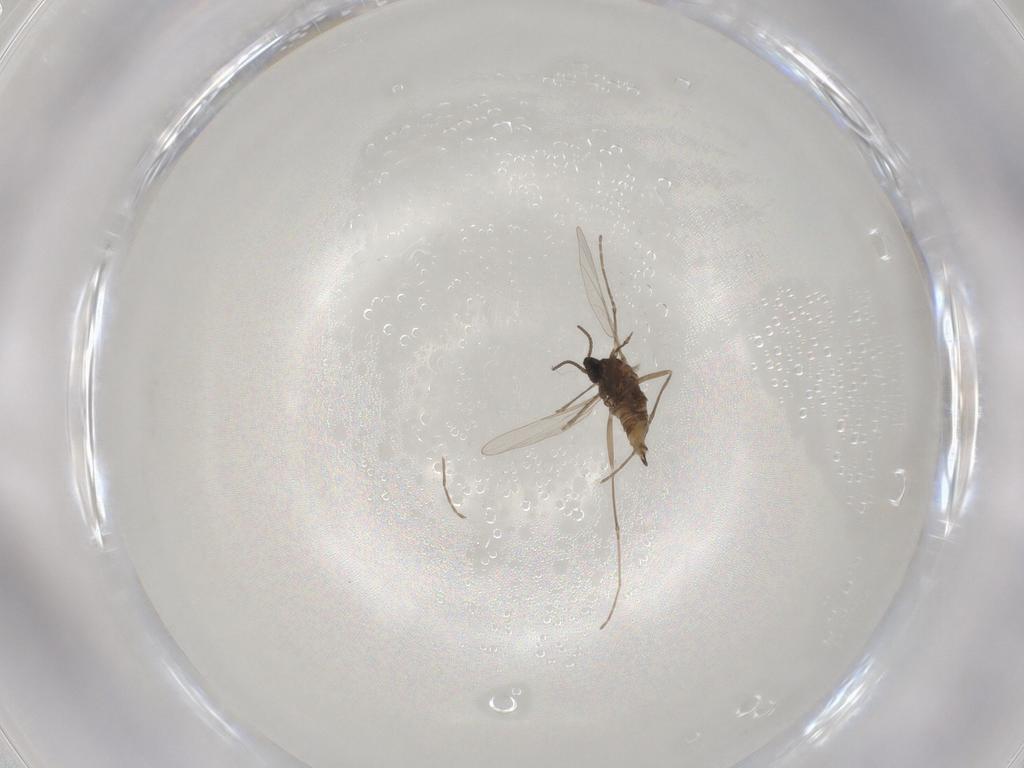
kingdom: Animalia
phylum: Arthropoda
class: Insecta
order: Diptera
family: Cecidomyiidae
